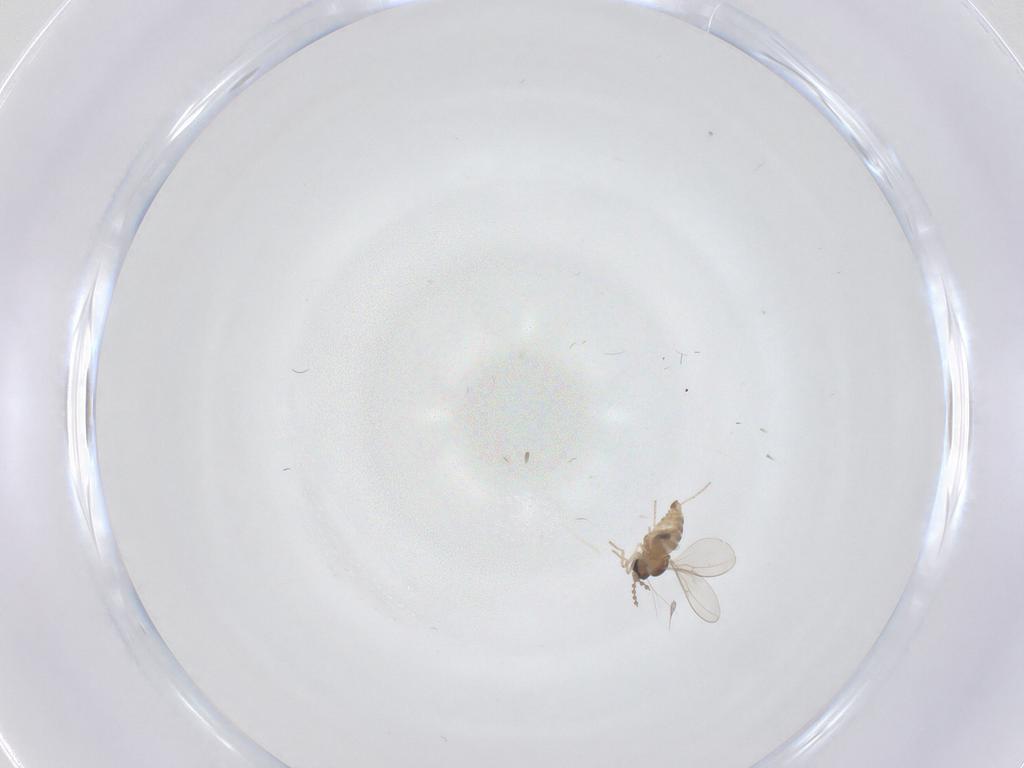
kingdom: Animalia
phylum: Arthropoda
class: Insecta
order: Diptera
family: Cecidomyiidae
